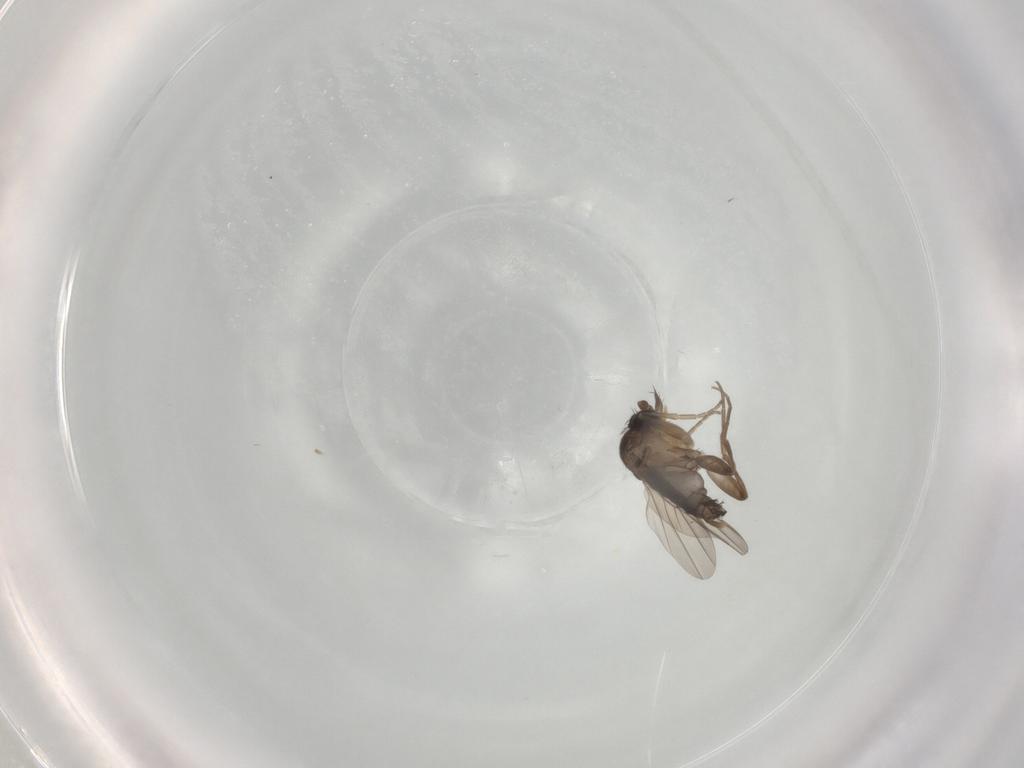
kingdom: Animalia
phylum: Arthropoda
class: Insecta
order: Diptera
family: Phoridae
